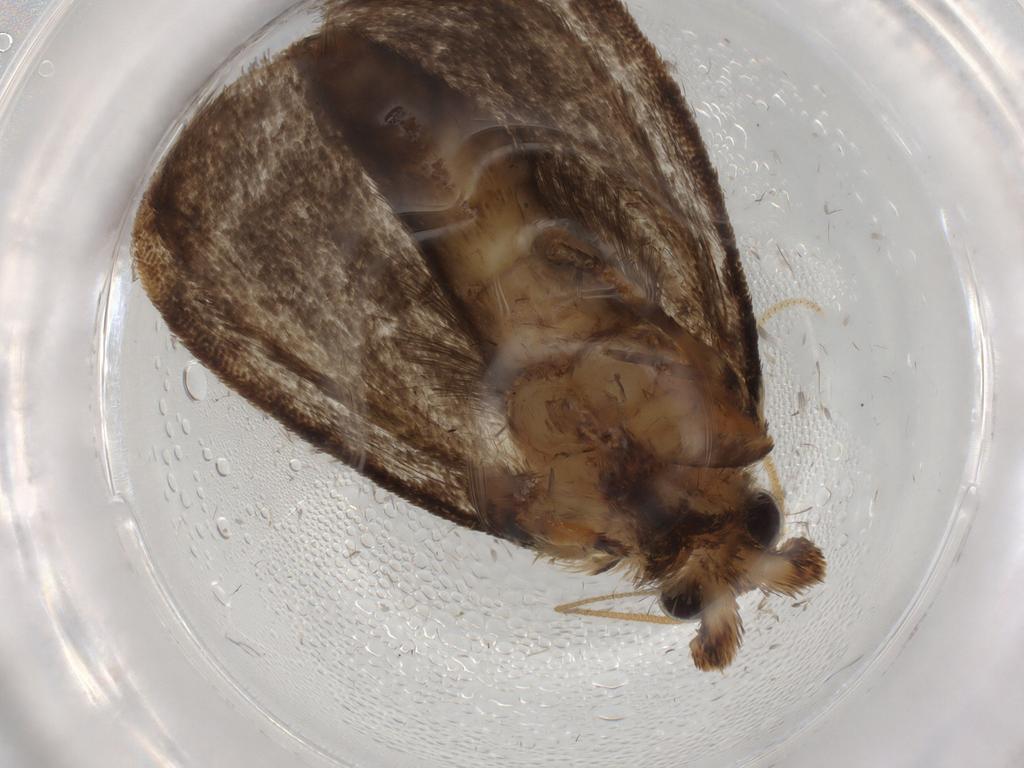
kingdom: Animalia
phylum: Arthropoda
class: Insecta
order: Lepidoptera
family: Tineidae
